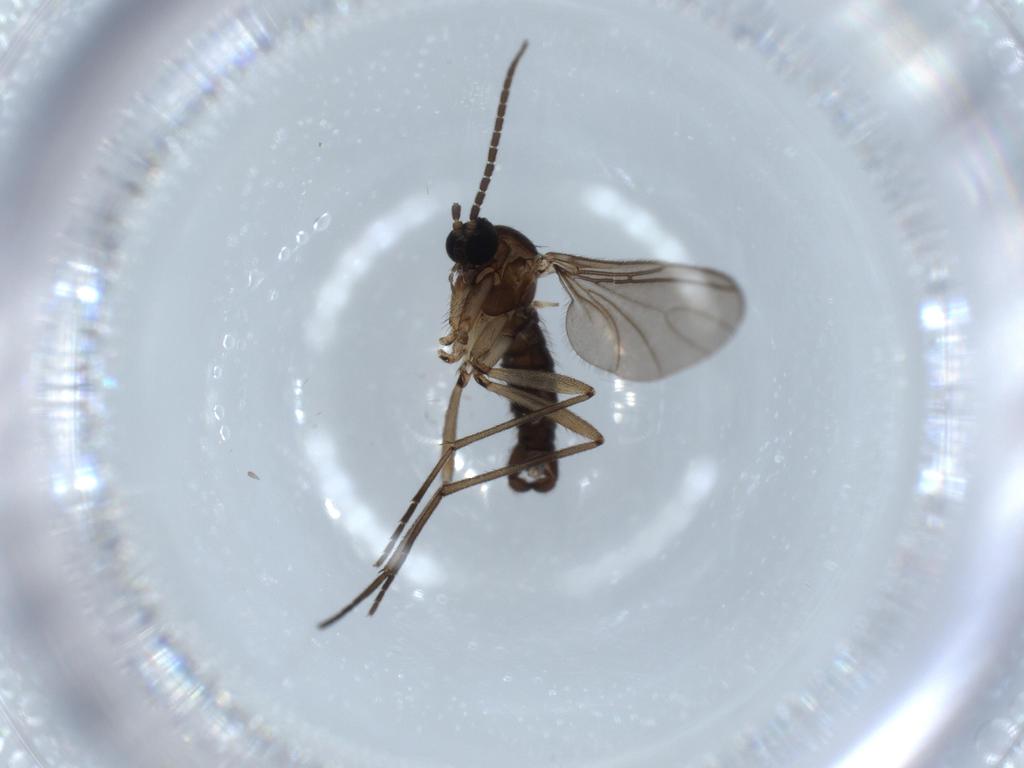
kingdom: Animalia
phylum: Arthropoda
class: Insecta
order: Diptera
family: Sciaridae
